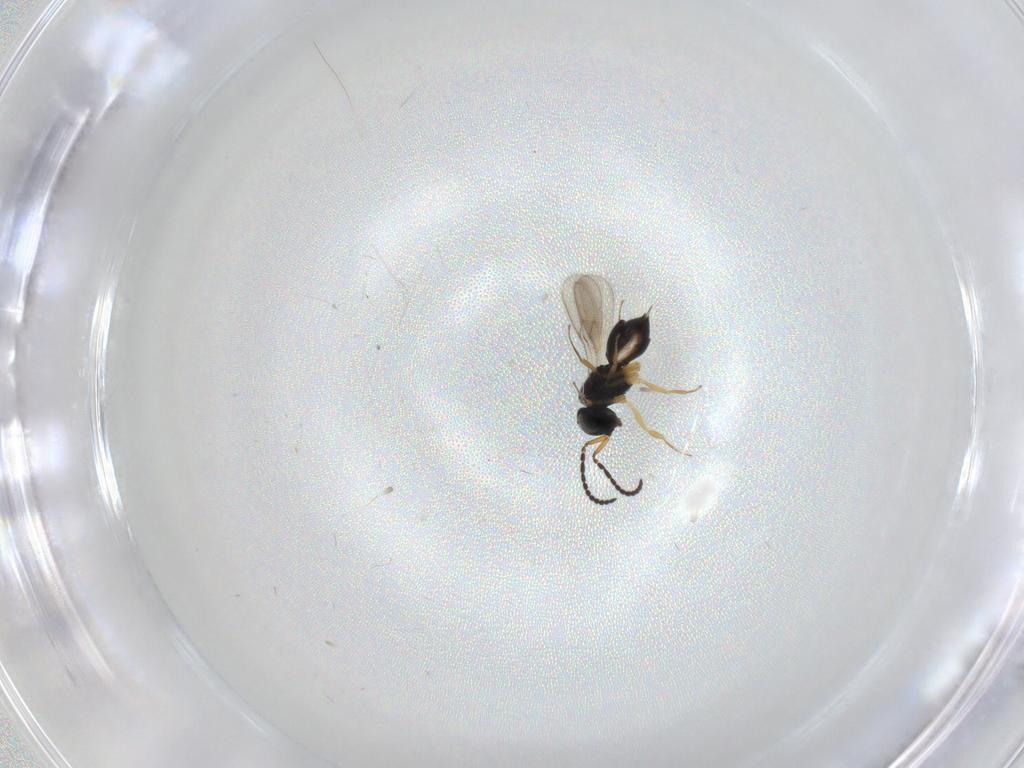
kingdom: Animalia
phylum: Arthropoda
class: Insecta
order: Hymenoptera
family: Scelionidae
